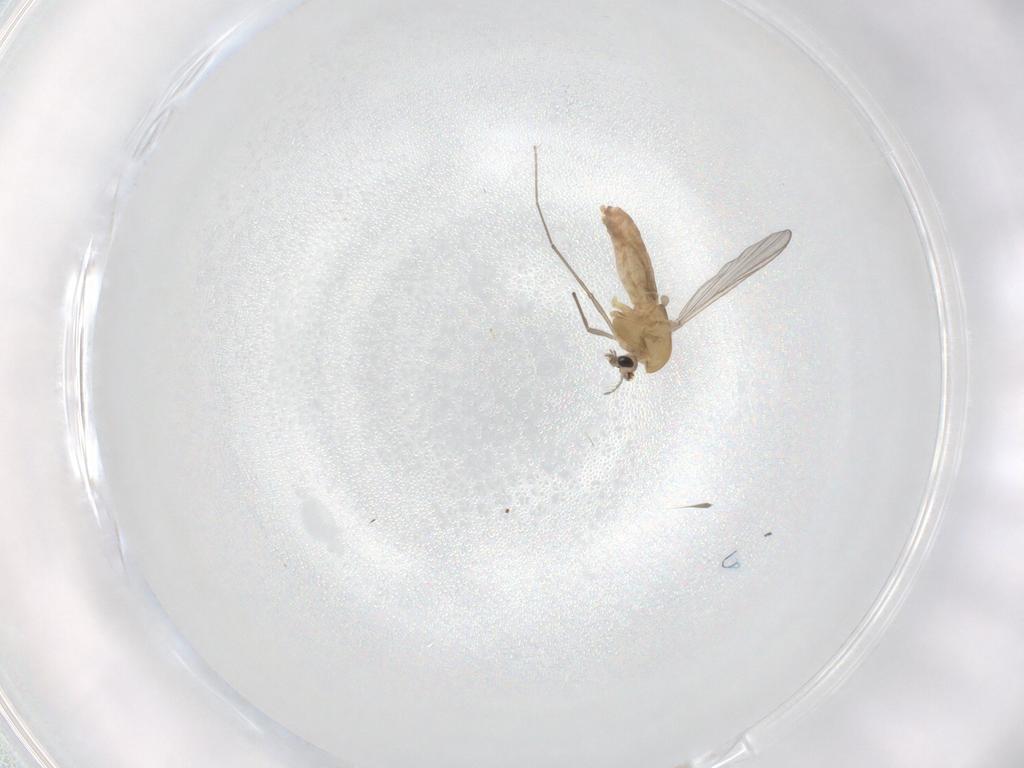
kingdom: Animalia
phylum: Arthropoda
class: Insecta
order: Diptera
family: Chironomidae
